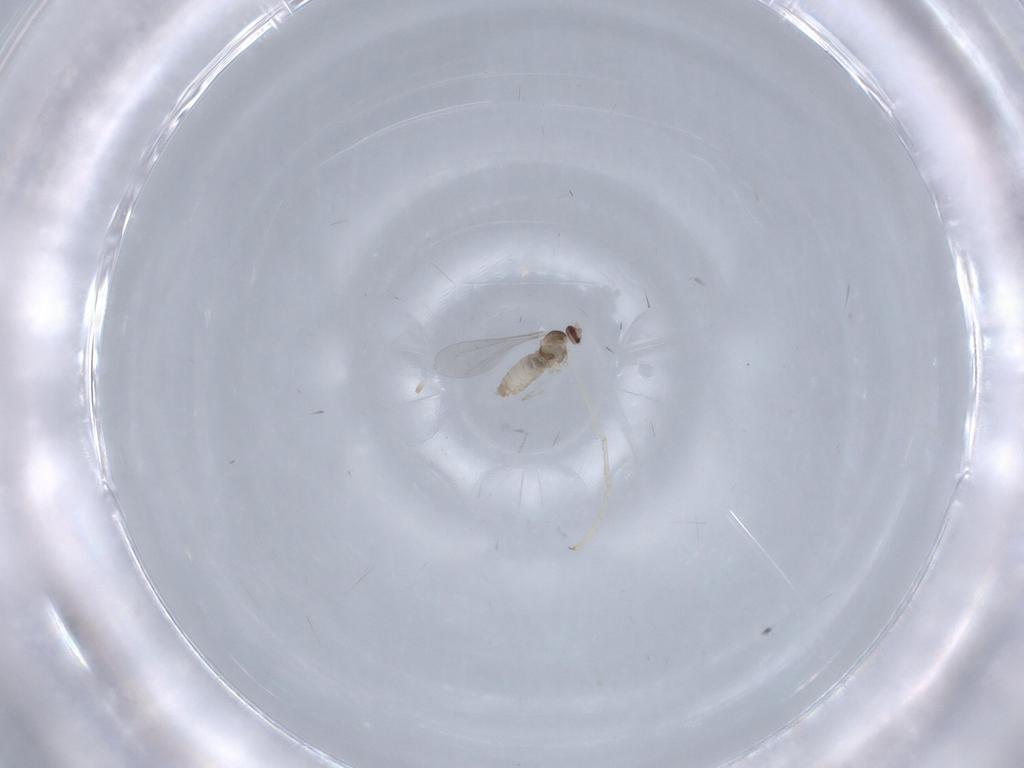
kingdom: Animalia
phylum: Arthropoda
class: Insecta
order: Diptera
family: Cecidomyiidae
